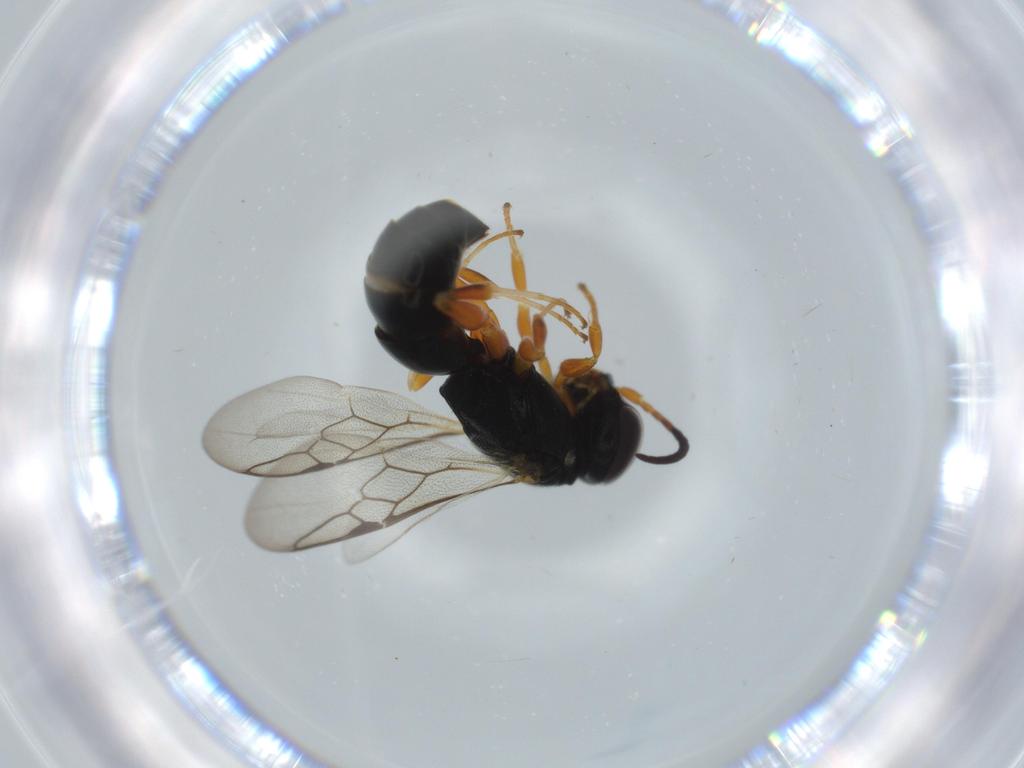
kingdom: Animalia
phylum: Arthropoda
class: Insecta
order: Hymenoptera
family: Crabronidae
